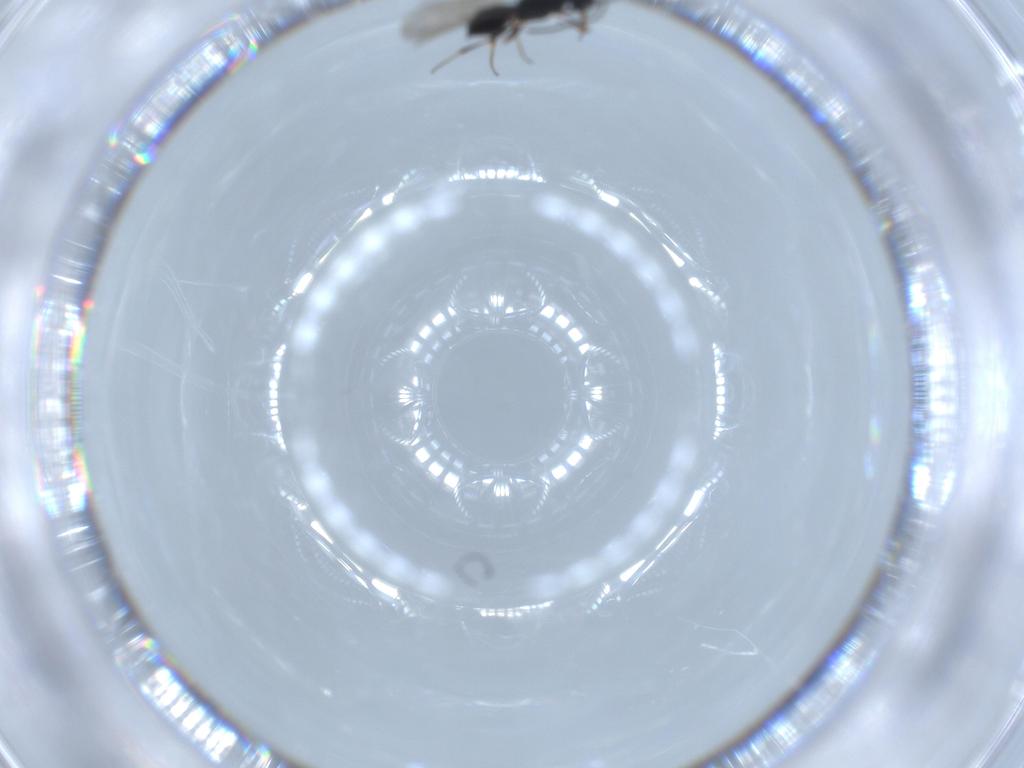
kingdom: Animalia
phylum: Arthropoda
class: Insecta
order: Hymenoptera
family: Scelionidae
